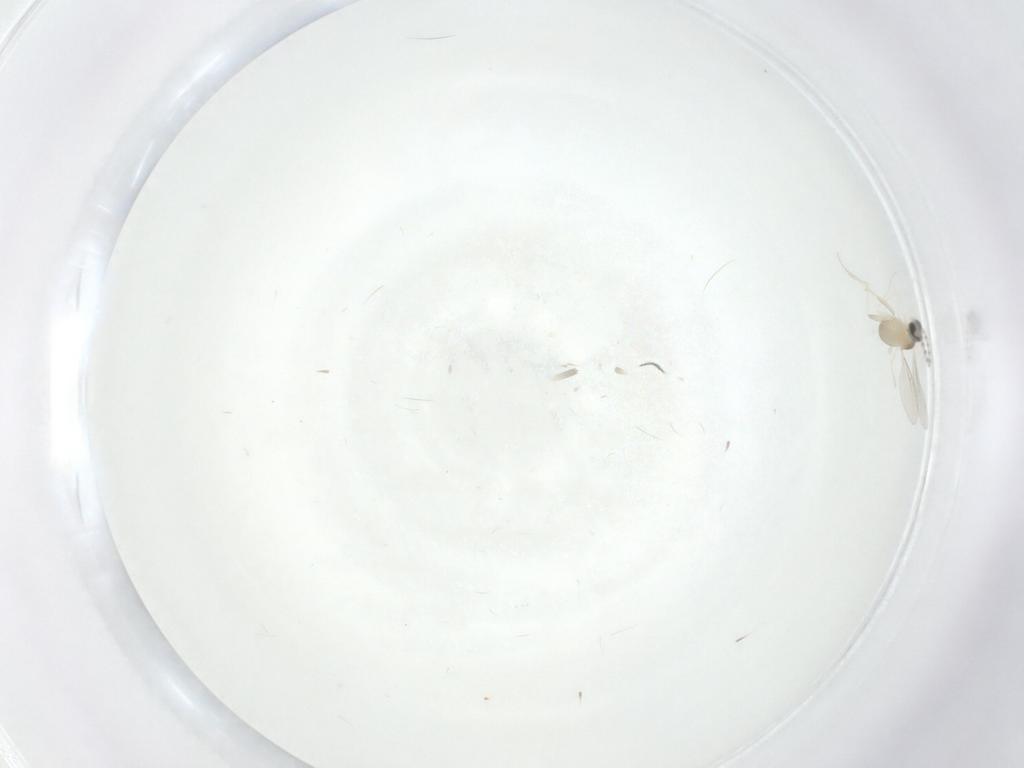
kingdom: Animalia
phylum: Arthropoda
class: Insecta
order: Diptera
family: Cecidomyiidae
